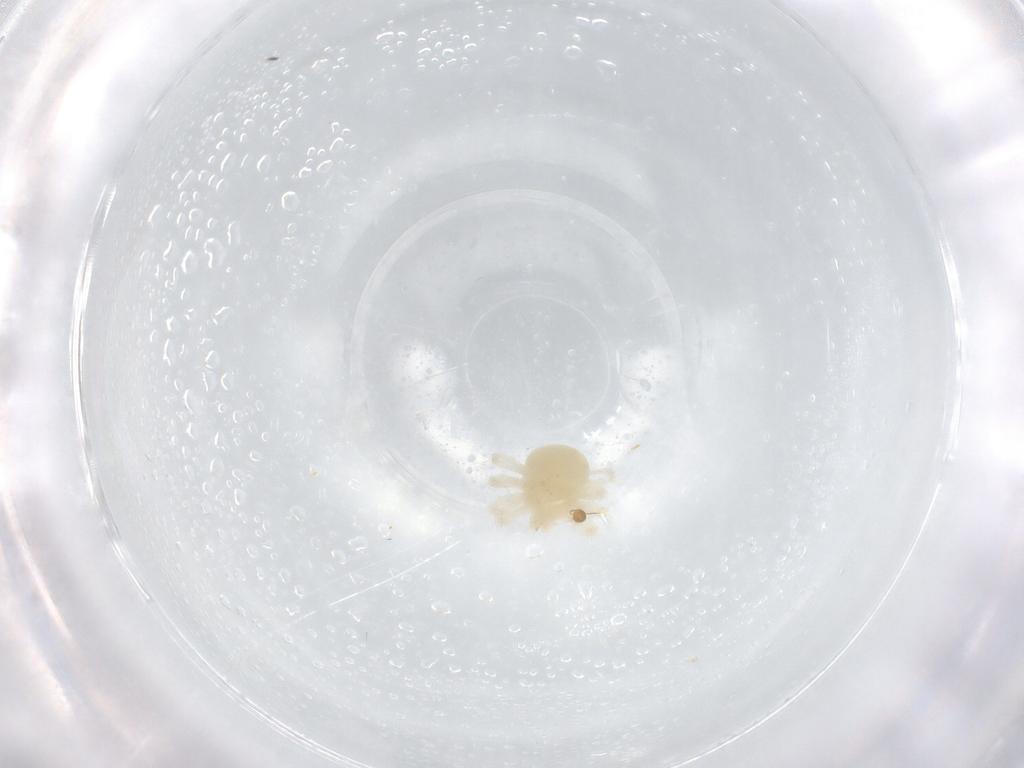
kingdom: Animalia
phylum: Arthropoda
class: Arachnida
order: Trombidiformes
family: Anystidae
